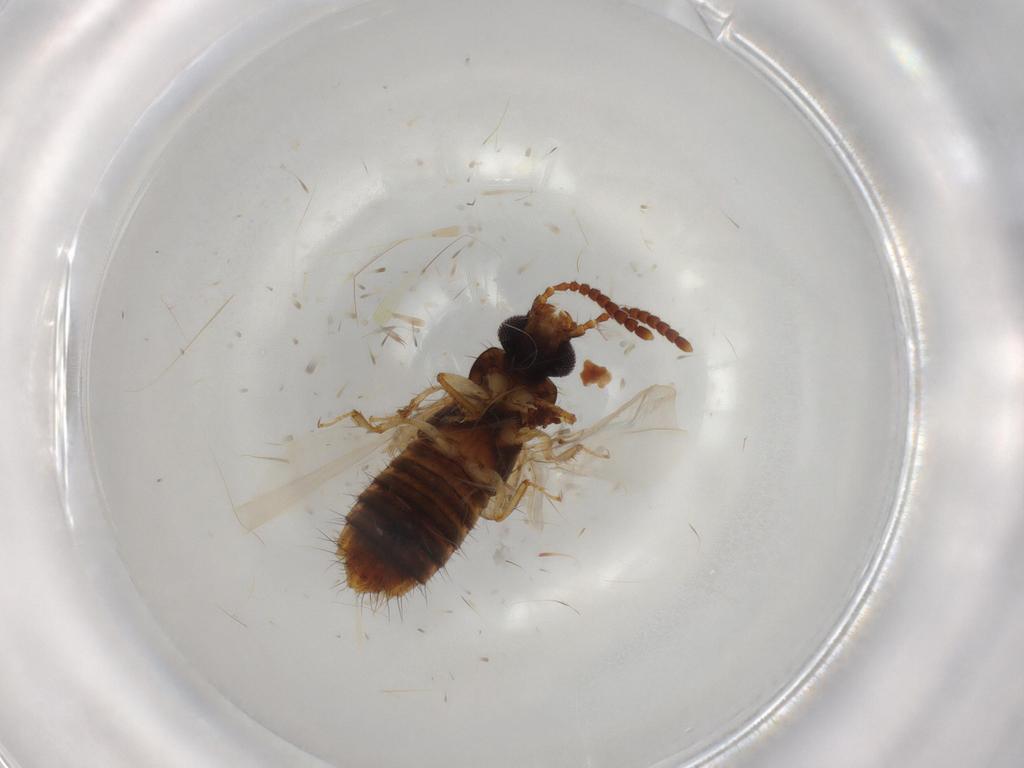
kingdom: Animalia
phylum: Arthropoda
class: Insecta
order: Coleoptera
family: Staphylinidae
